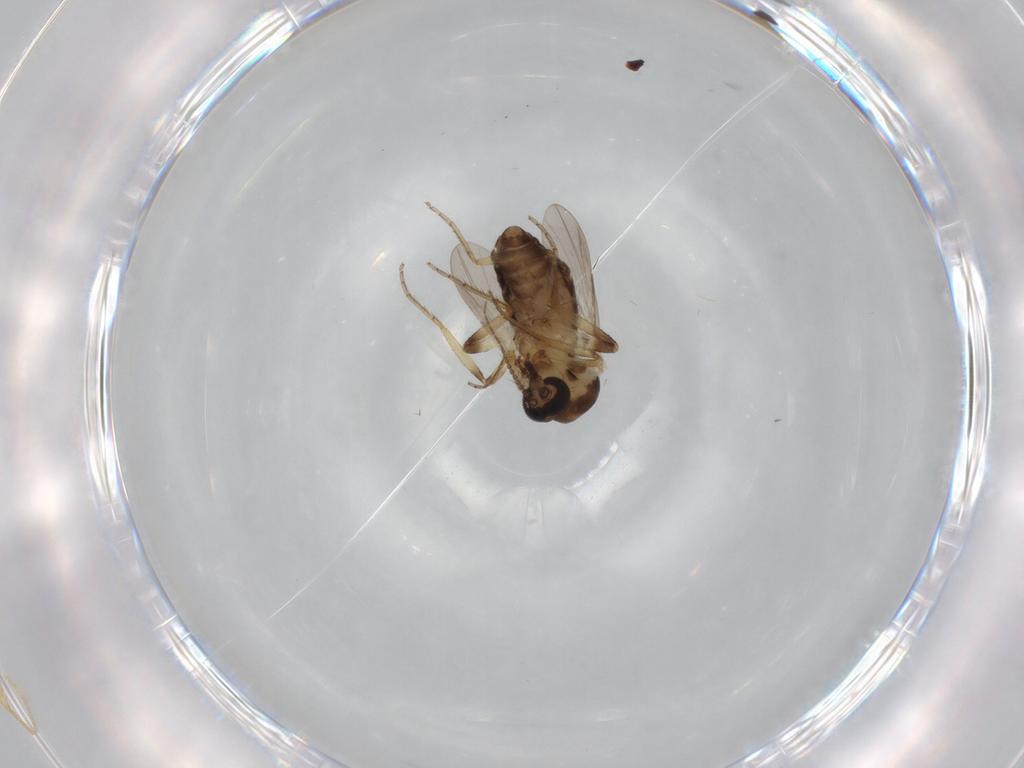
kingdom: Animalia
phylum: Arthropoda
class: Insecta
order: Diptera
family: Ceratopogonidae
